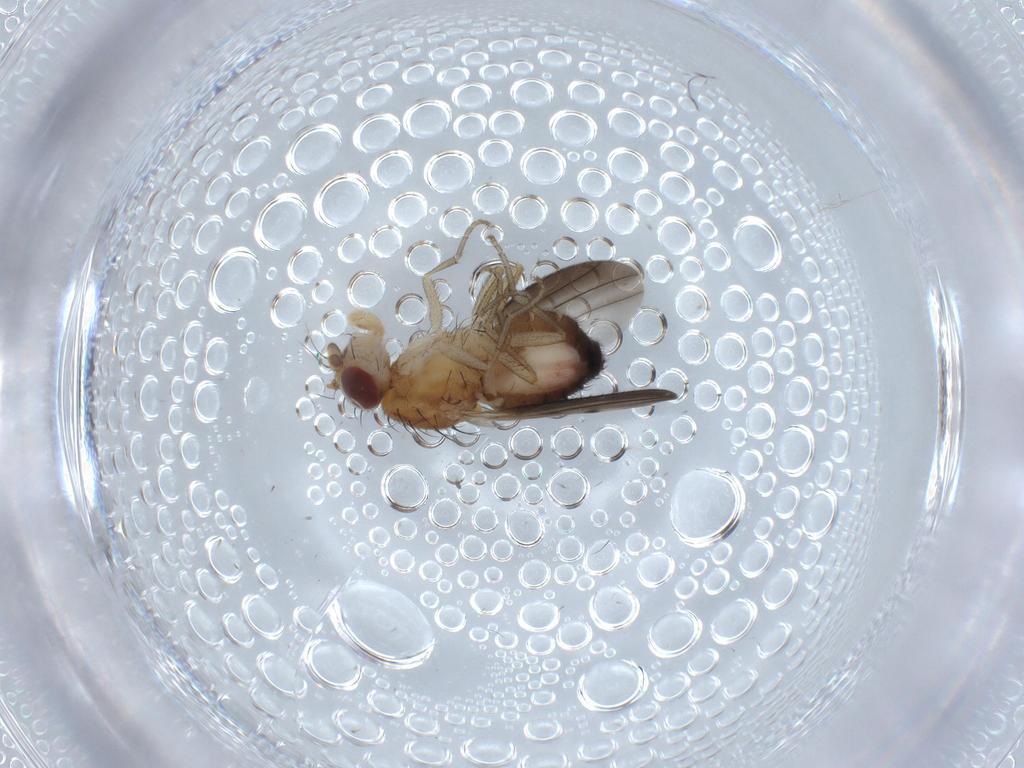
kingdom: Animalia
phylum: Arthropoda
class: Insecta
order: Diptera
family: Heleomyzidae
